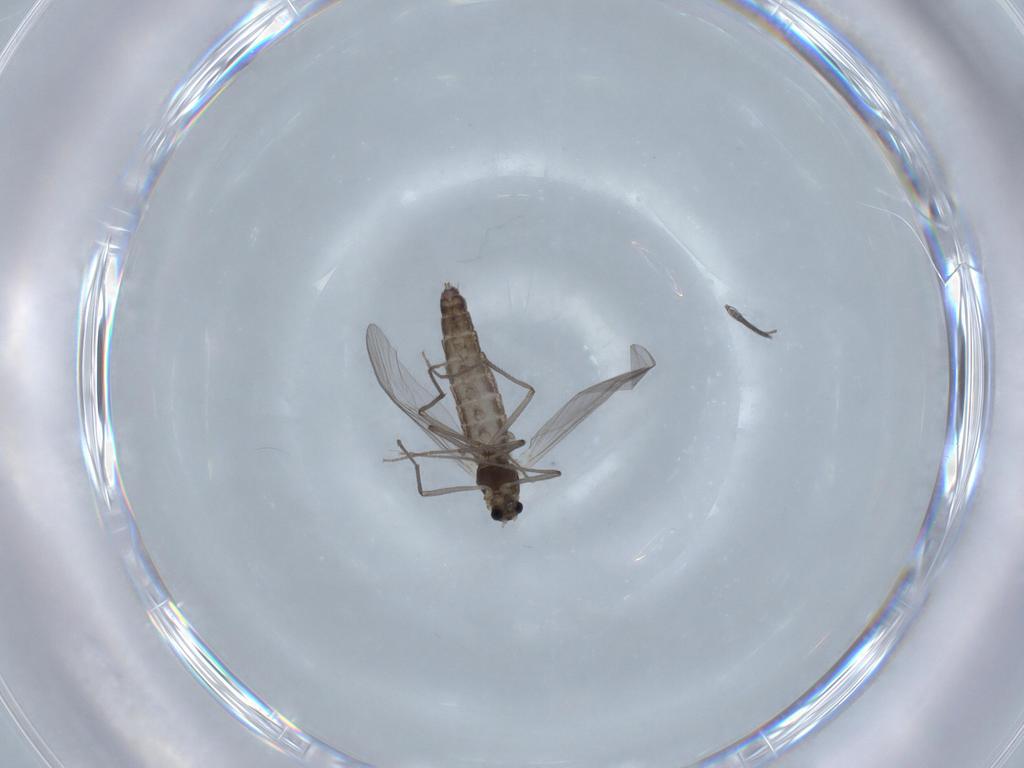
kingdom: Animalia
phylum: Arthropoda
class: Insecta
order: Diptera
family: Chironomidae
